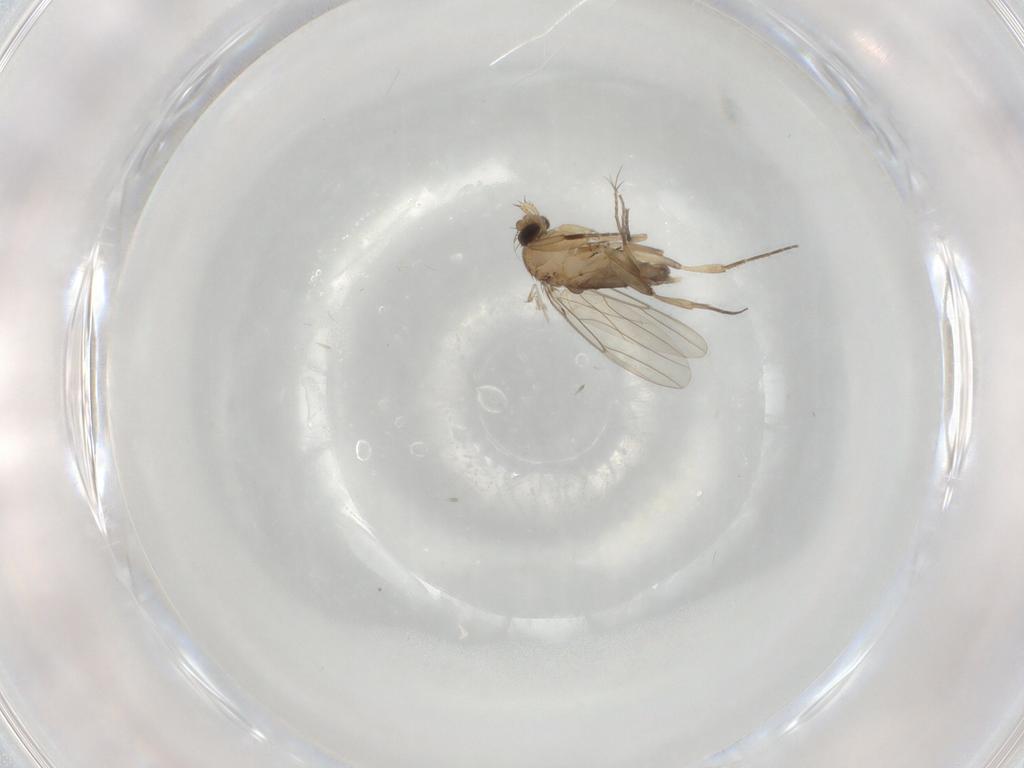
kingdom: Animalia
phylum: Arthropoda
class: Insecta
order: Diptera
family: Phoridae
